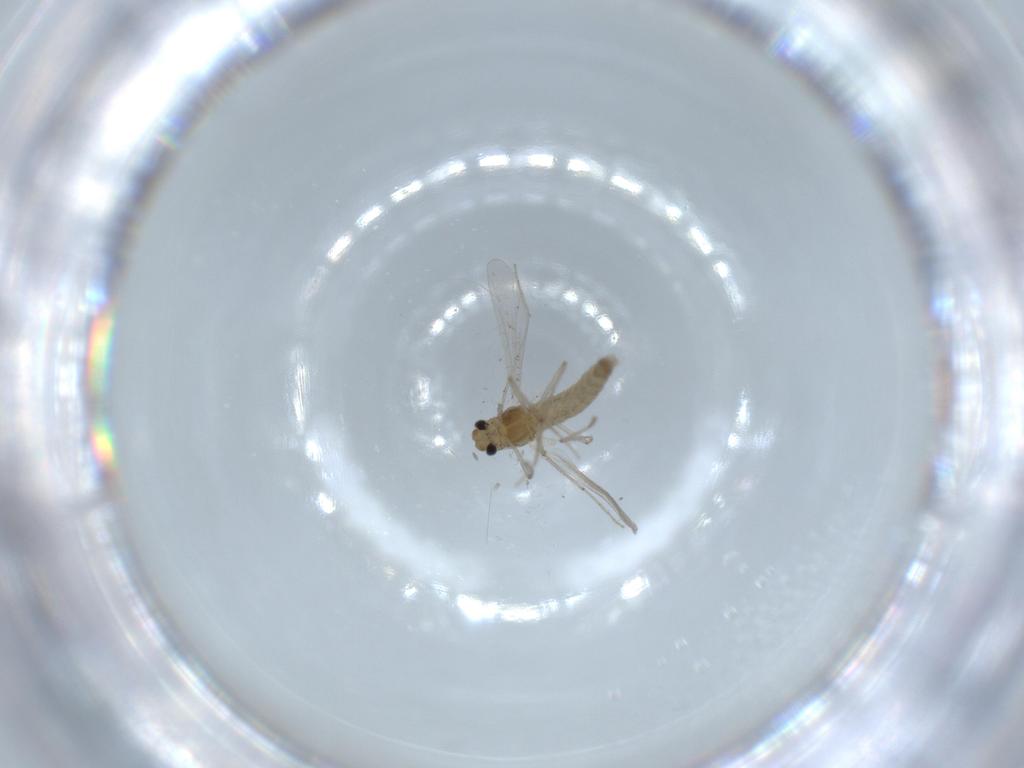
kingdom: Animalia
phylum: Arthropoda
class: Insecta
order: Diptera
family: Chironomidae
